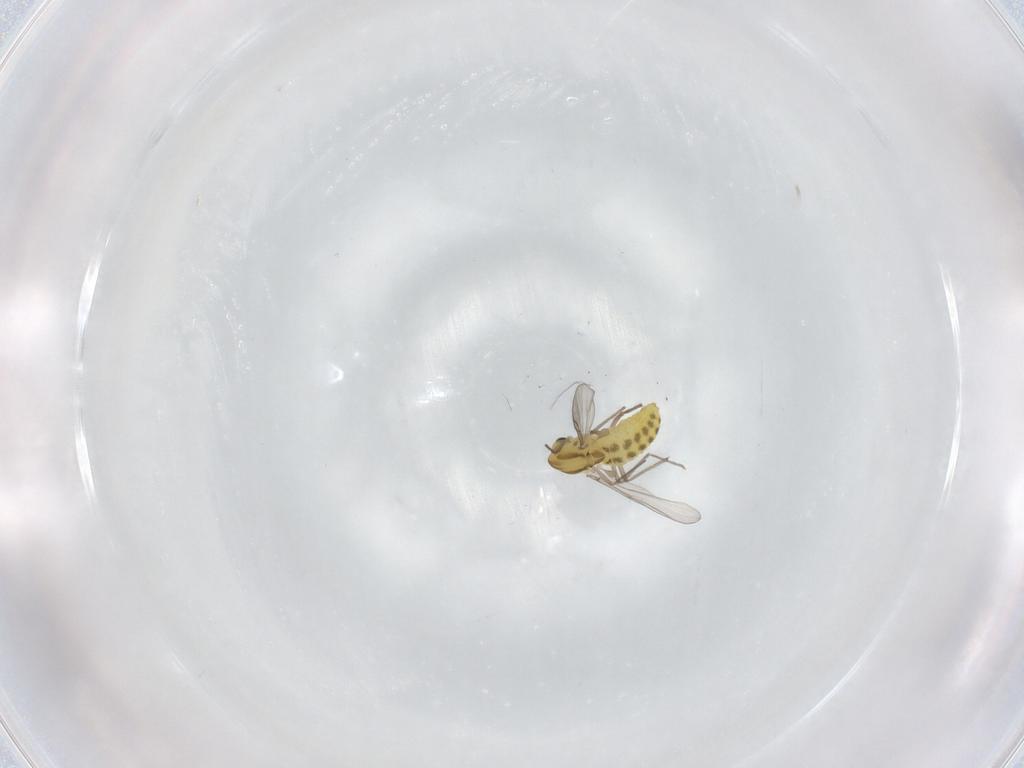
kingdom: Animalia
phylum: Arthropoda
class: Insecta
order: Diptera
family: Chironomidae
